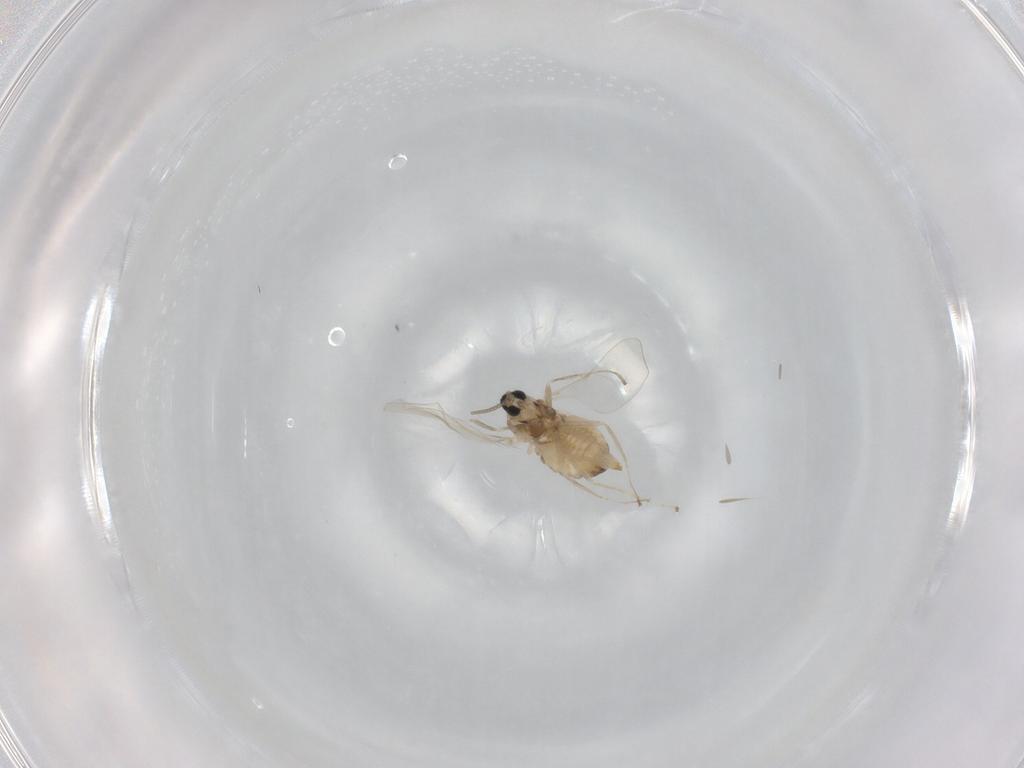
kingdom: Animalia
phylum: Arthropoda
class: Insecta
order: Diptera
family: Cecidomyiidae
